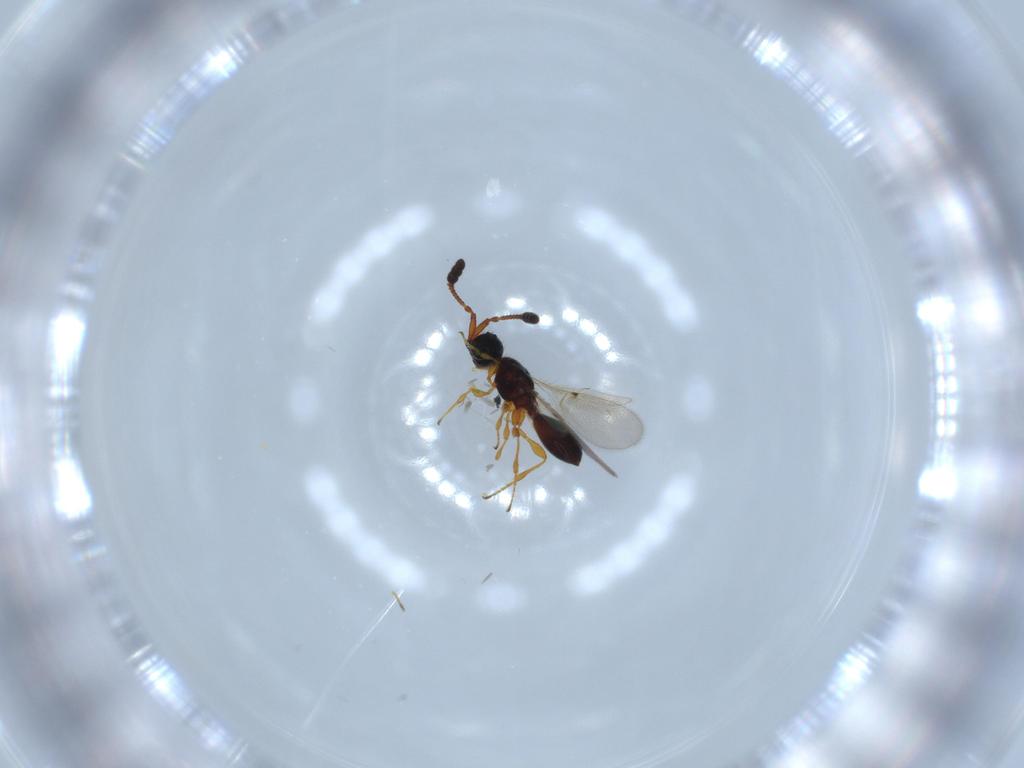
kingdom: Animalia
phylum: Arthropoda
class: Insecta
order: Hymenoptera
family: Diapriidae
